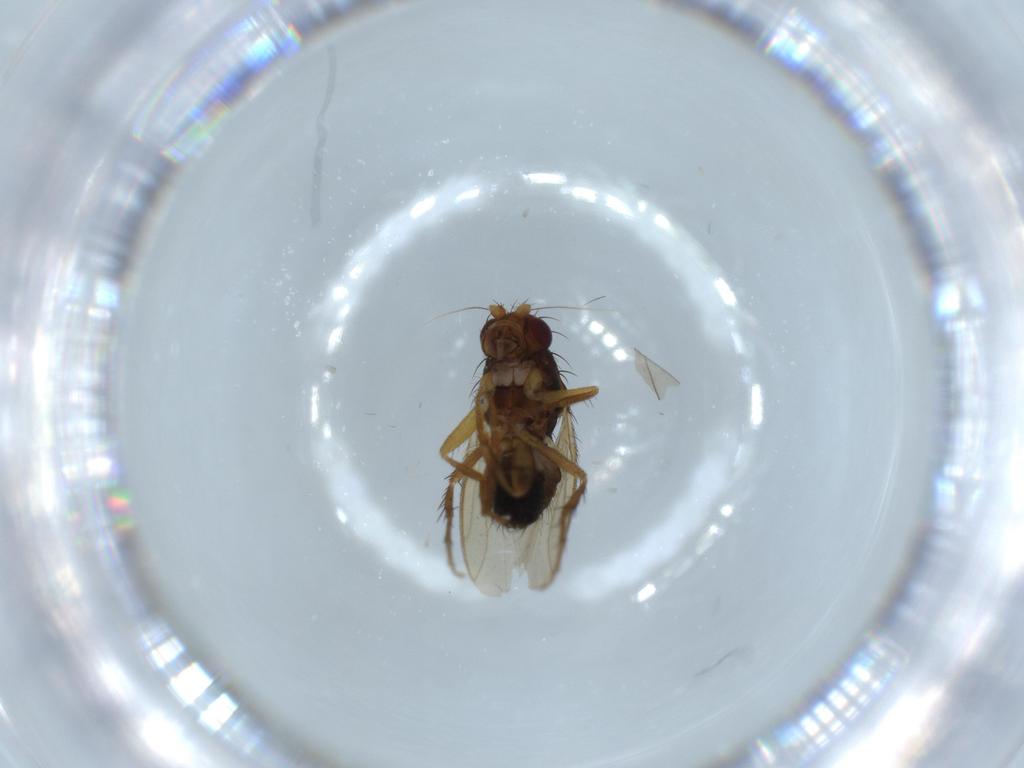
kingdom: Animalia
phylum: Arthropoda
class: Insecta
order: Diptera
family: Sphaeroceridae
